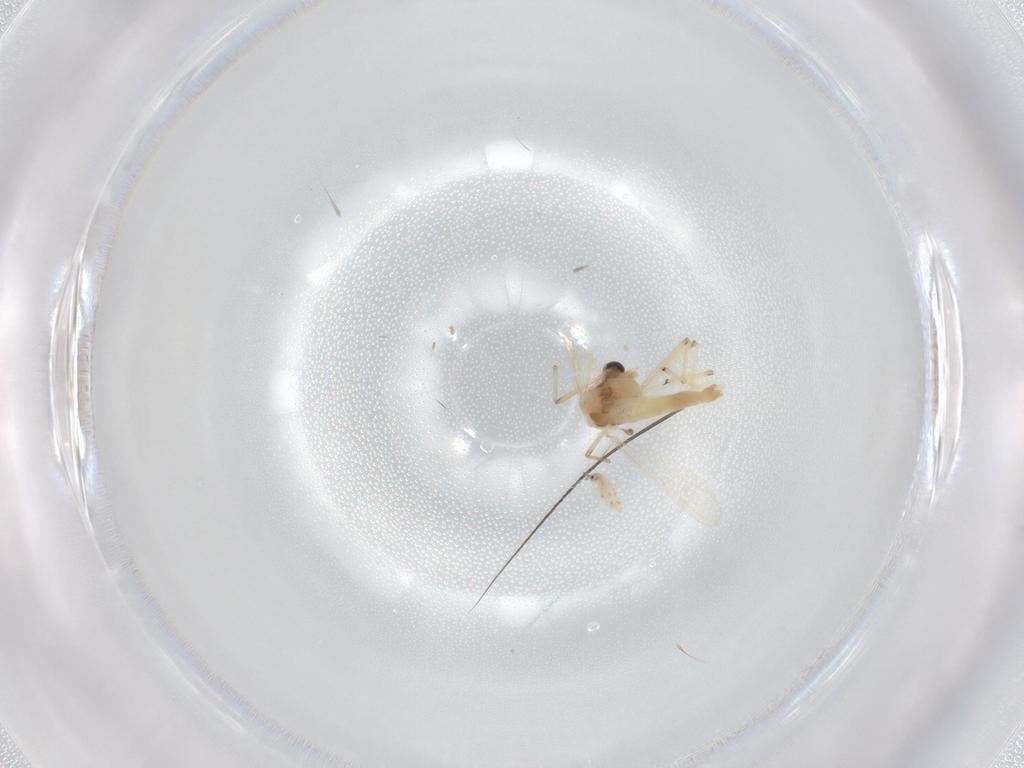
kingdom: Animalia
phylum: Arthropoda
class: Insecta
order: Diptera
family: Chironomidae
